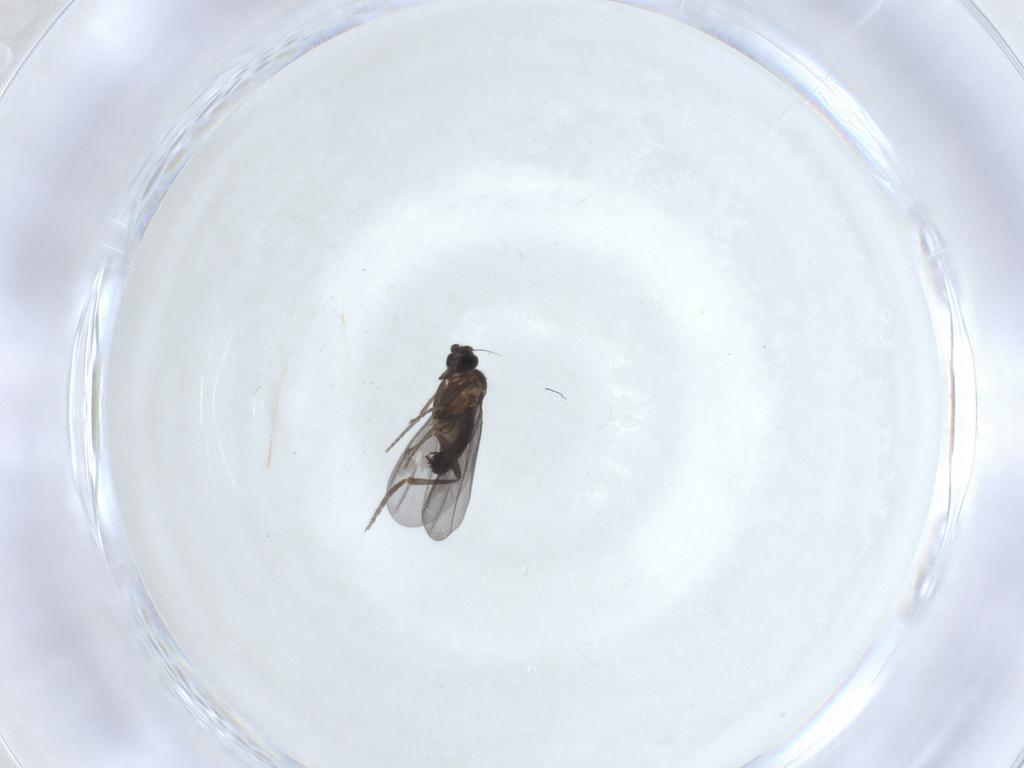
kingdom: Animalia
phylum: Arthropoda
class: Insecta
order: Diptera
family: Phoridae
